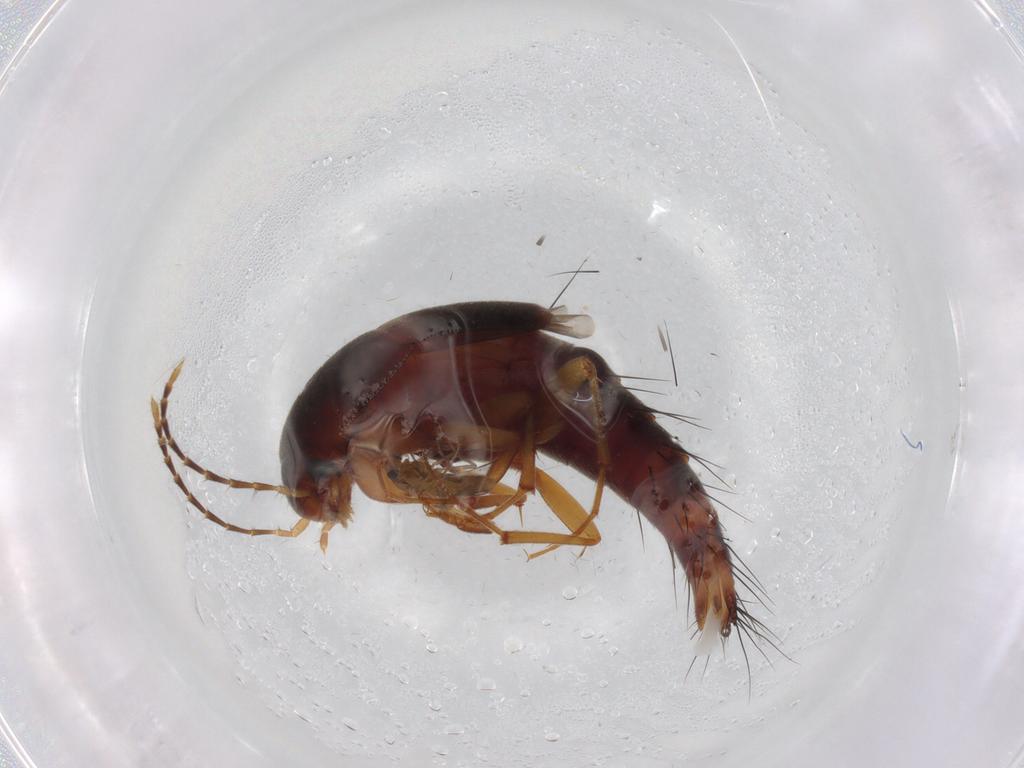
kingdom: Animalia
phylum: Arthropoda
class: Insecta
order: Coleoptera
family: Staphylinidae
